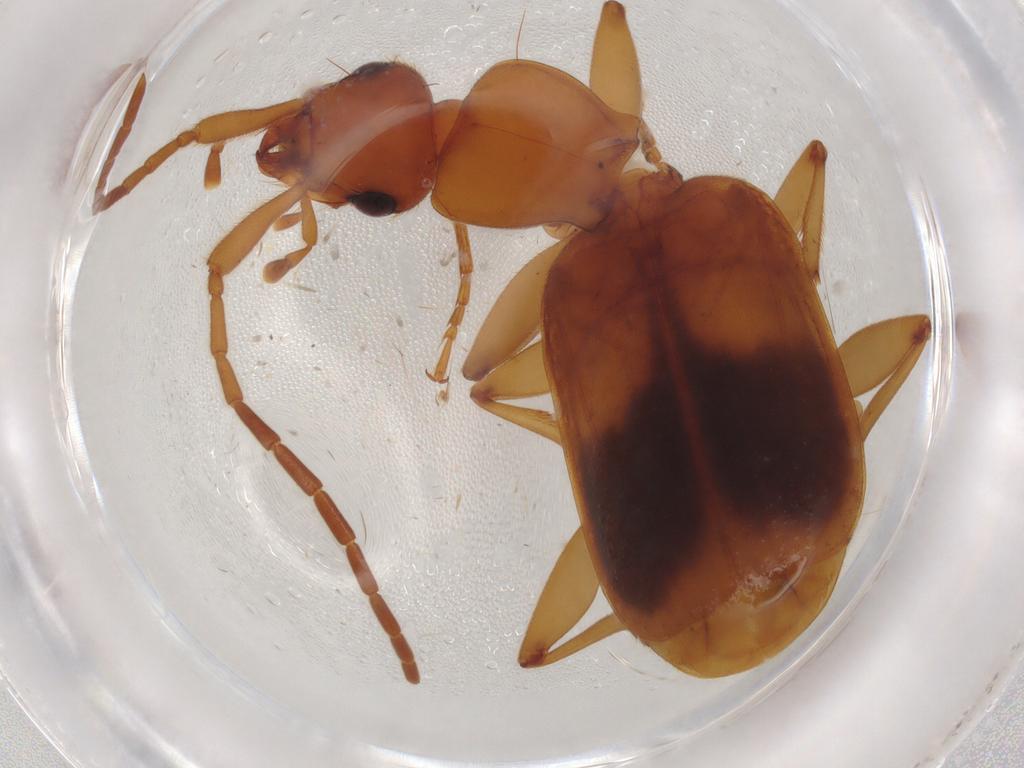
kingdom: Animalia
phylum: Arthropoda
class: Insecta
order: Coleoptera
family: Carabidae
